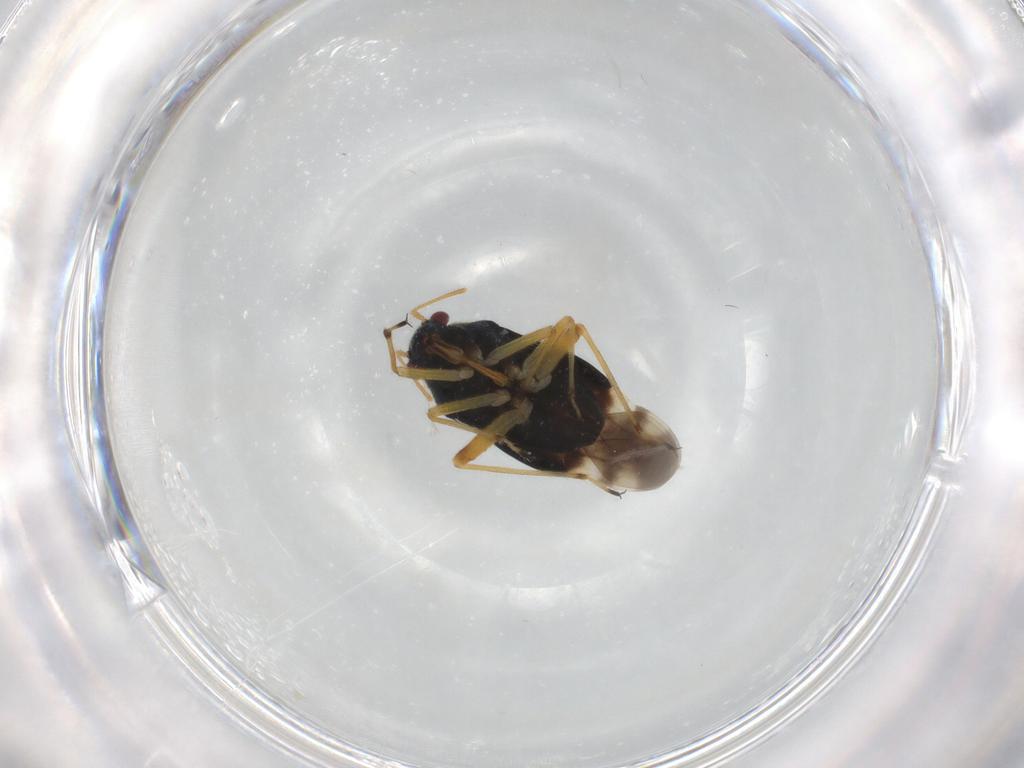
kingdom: Animalia
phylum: Arthropoda
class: Insecta
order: Hemiptera
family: Miridae
